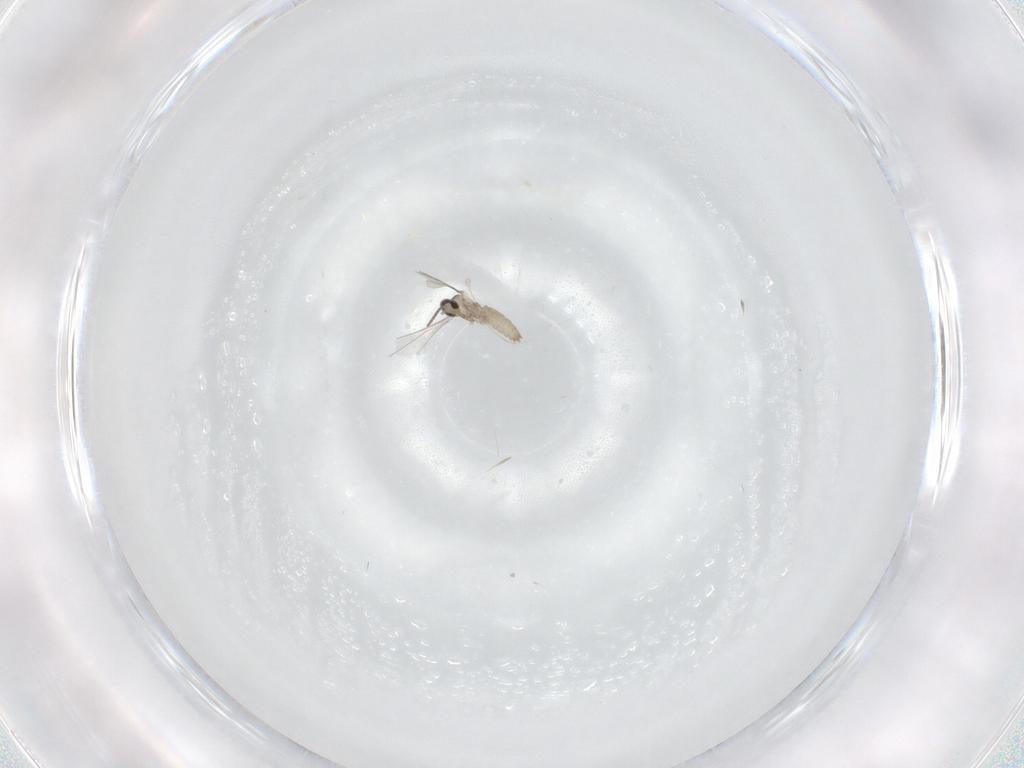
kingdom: Animalia
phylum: Arthropoda
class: Insecta
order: Diptera
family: Cecidomyiidae
